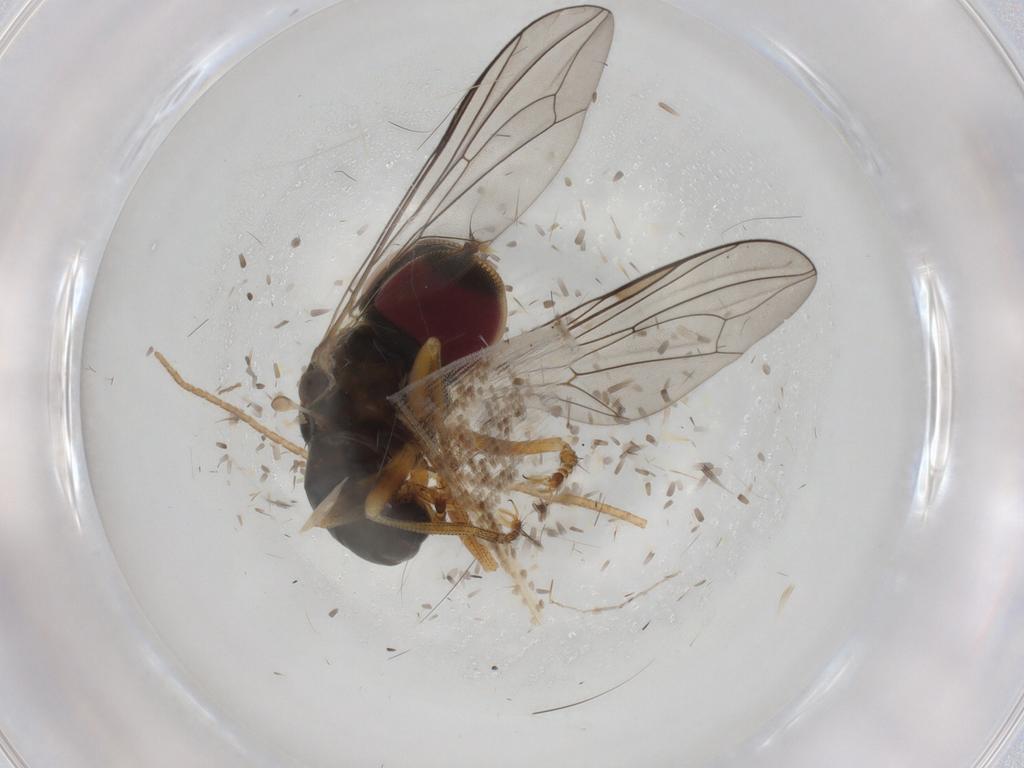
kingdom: Animalia
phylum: Arthropoda
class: Insecta
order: Diptera
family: Pipunculidae
